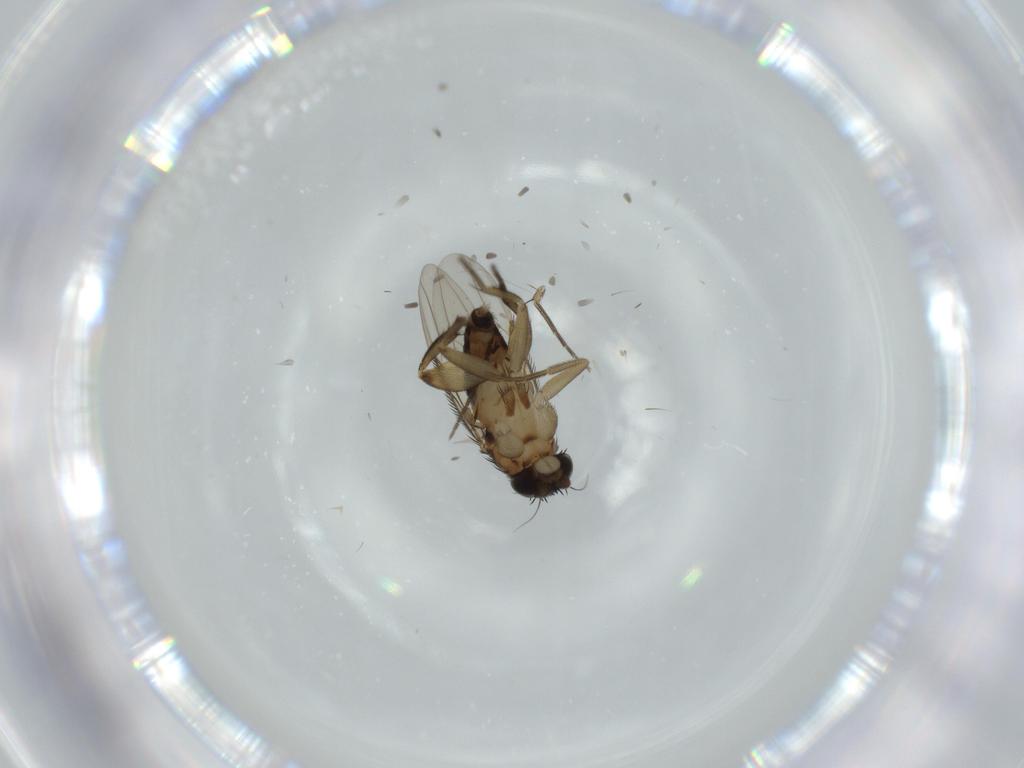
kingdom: Animalia
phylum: Arthropoda
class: Insecta
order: Diptera
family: Phoridae
